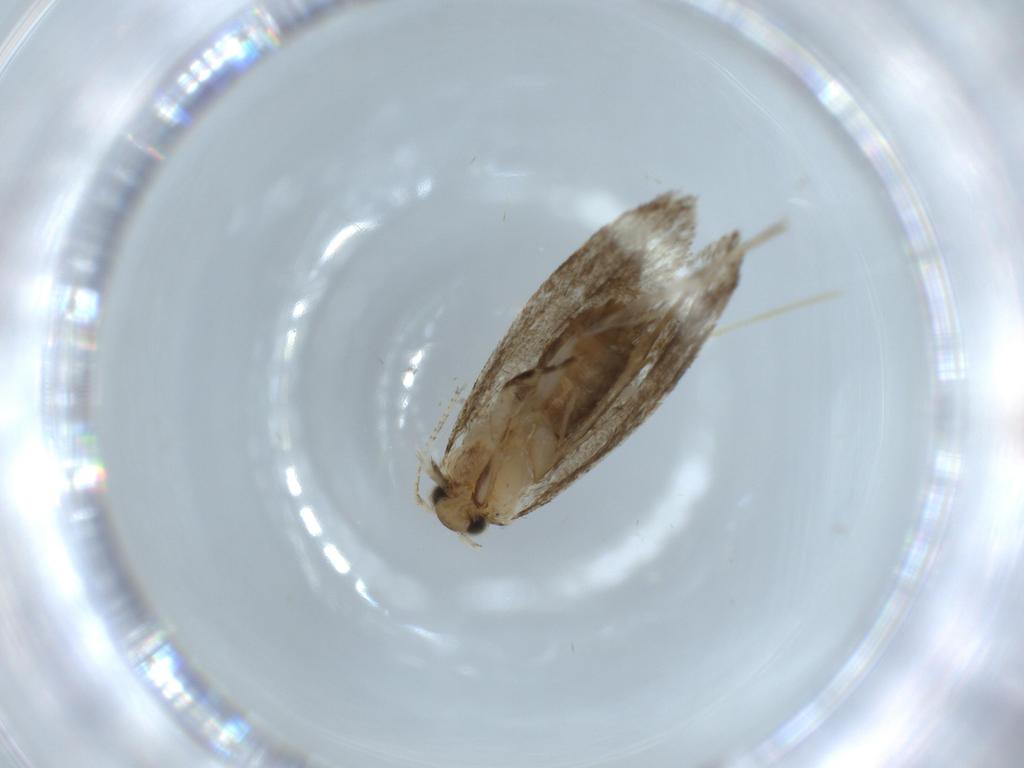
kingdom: Animalia
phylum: Arthropoda
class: Insecta
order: Lepidoptera
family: Tineidae
